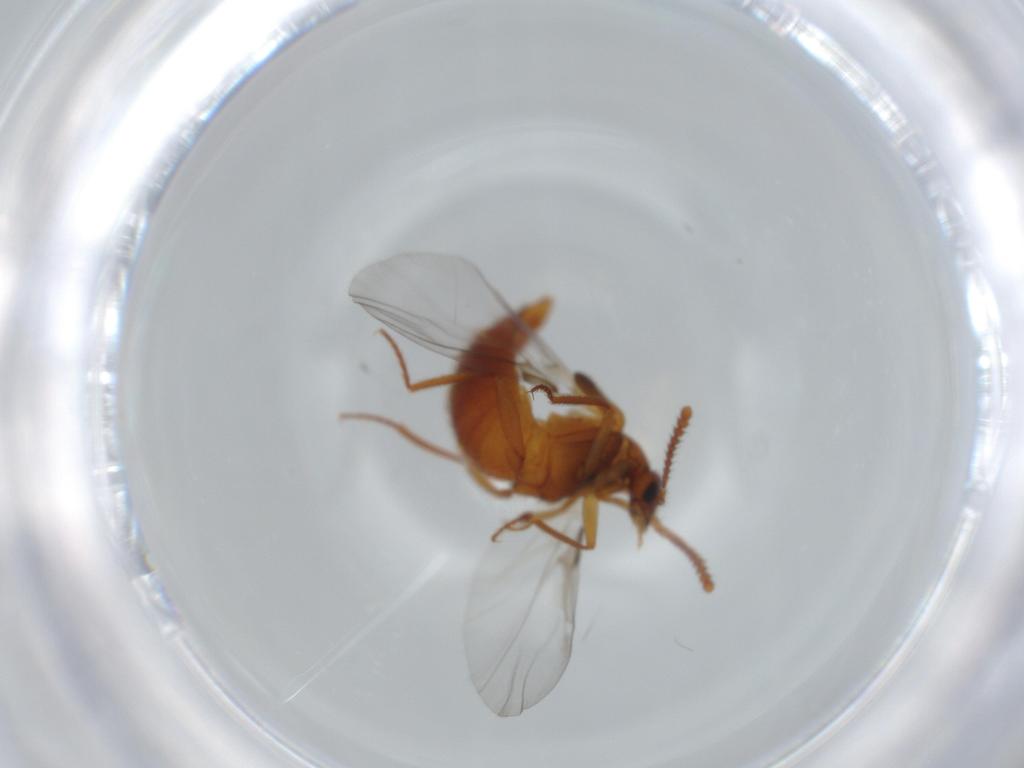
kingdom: Animalia
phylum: Arthropoda
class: Insecta
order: Coleoptera
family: Staphylinidae
